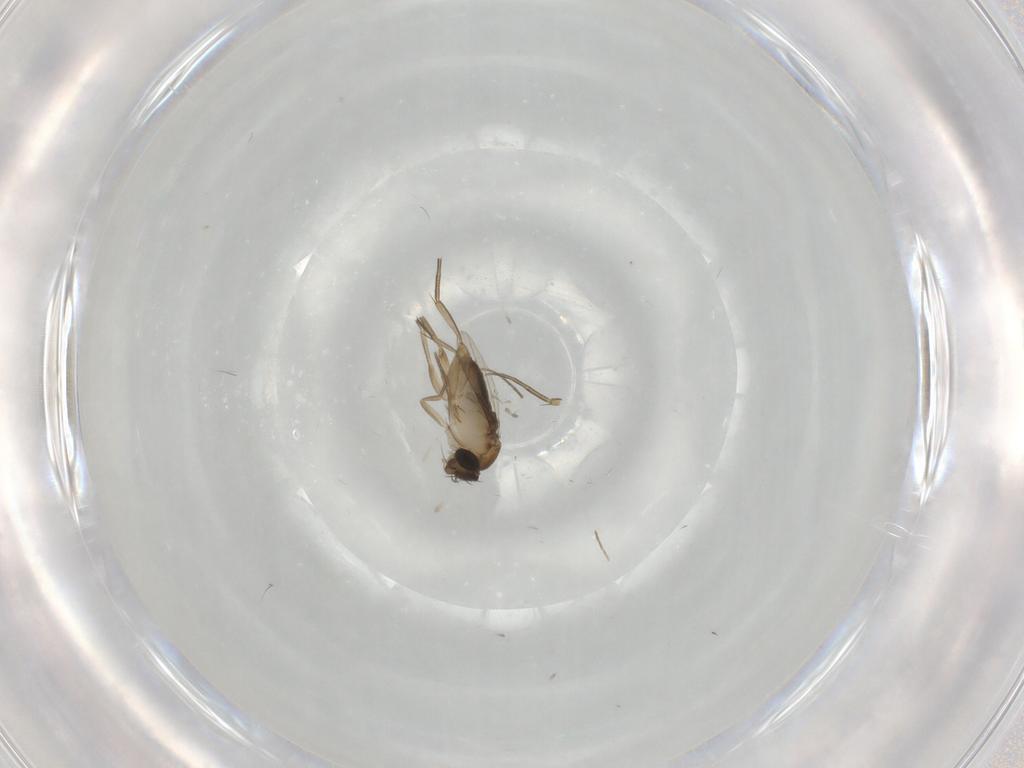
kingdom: Animalia
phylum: Arthropoda
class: Insecta
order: Diptera
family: Phoridae
